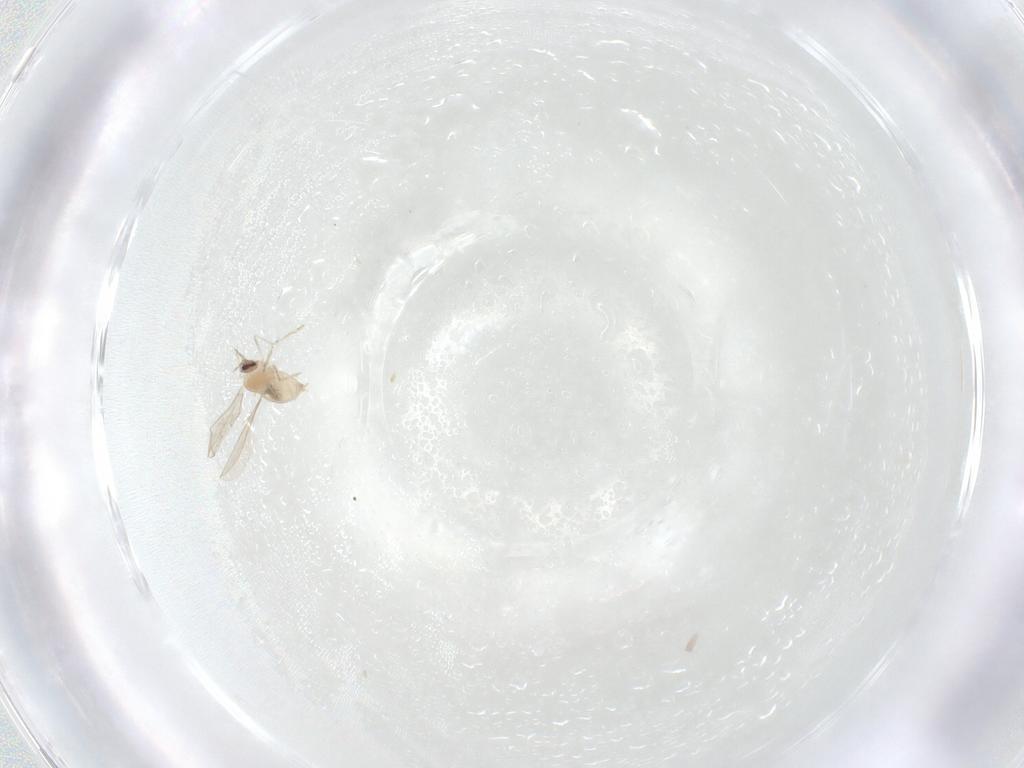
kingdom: Animalia
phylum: Arthropoda
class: Insecta
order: Diptera
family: Cecidomyiidae
